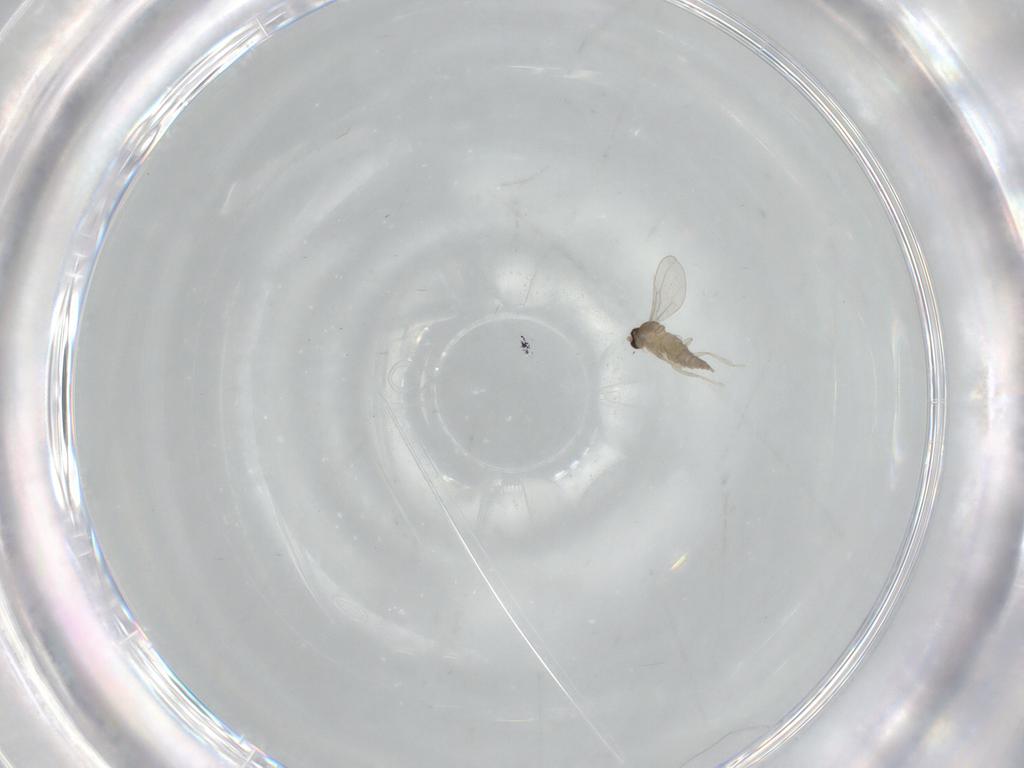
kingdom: Animalia
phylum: Arthropoda
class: Insecta
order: Diptera
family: Cecidomyiidae
